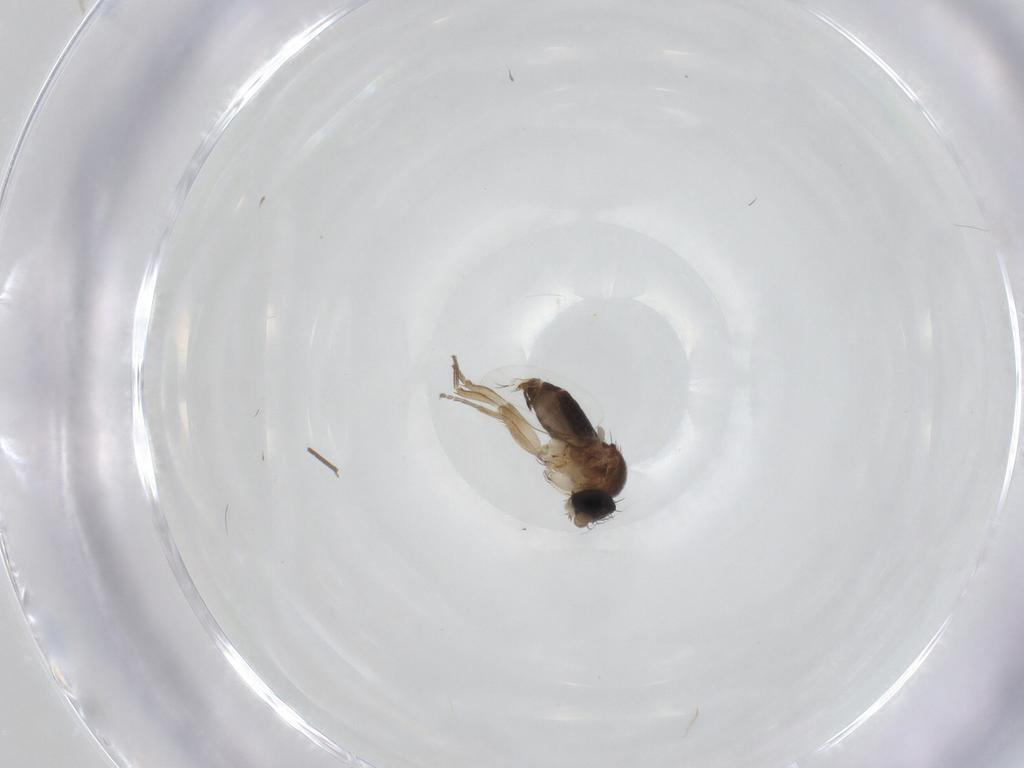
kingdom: Animalia
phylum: Arthropoda
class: Insecta
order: Diptera
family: Phoridae
